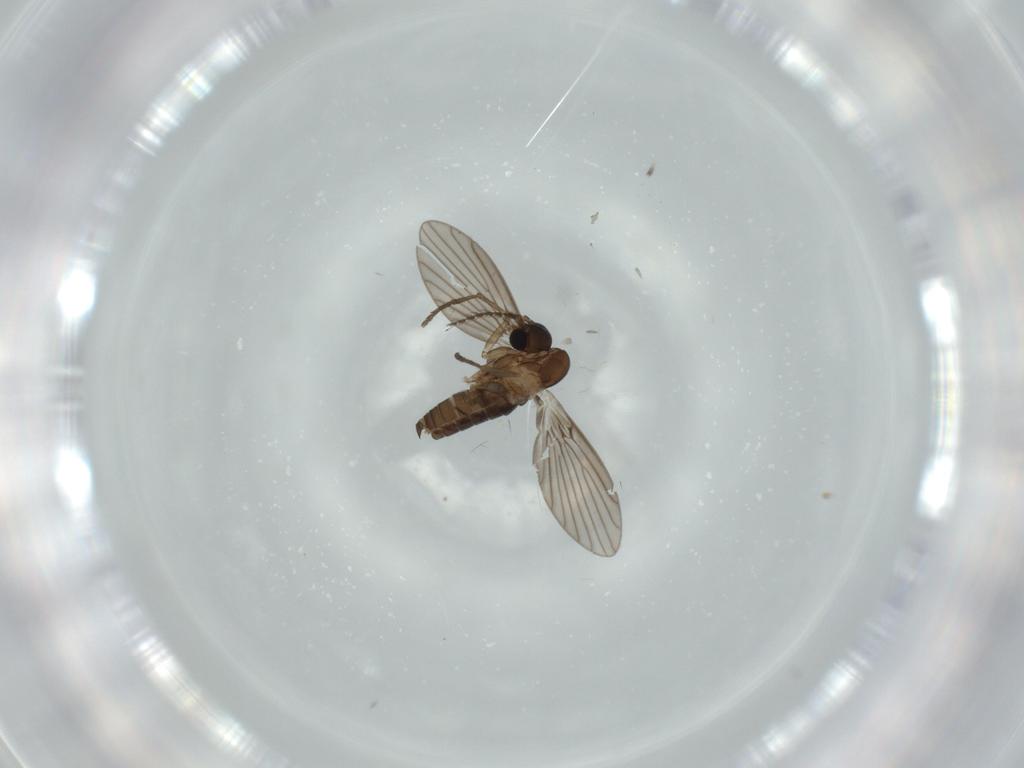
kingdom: Animalia
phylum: Arthropoda
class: Insecta
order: Diptera
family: Psychodidae
